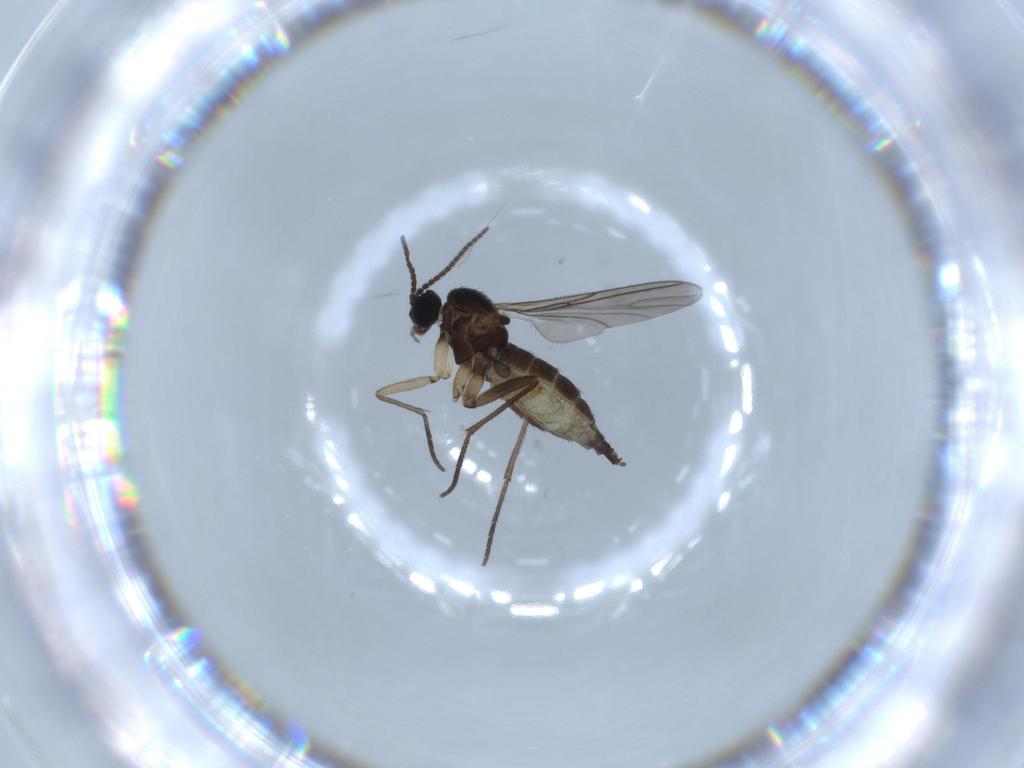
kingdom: Animalia
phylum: Arthropoda
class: Insecta
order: Diptera
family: Sciaridae
